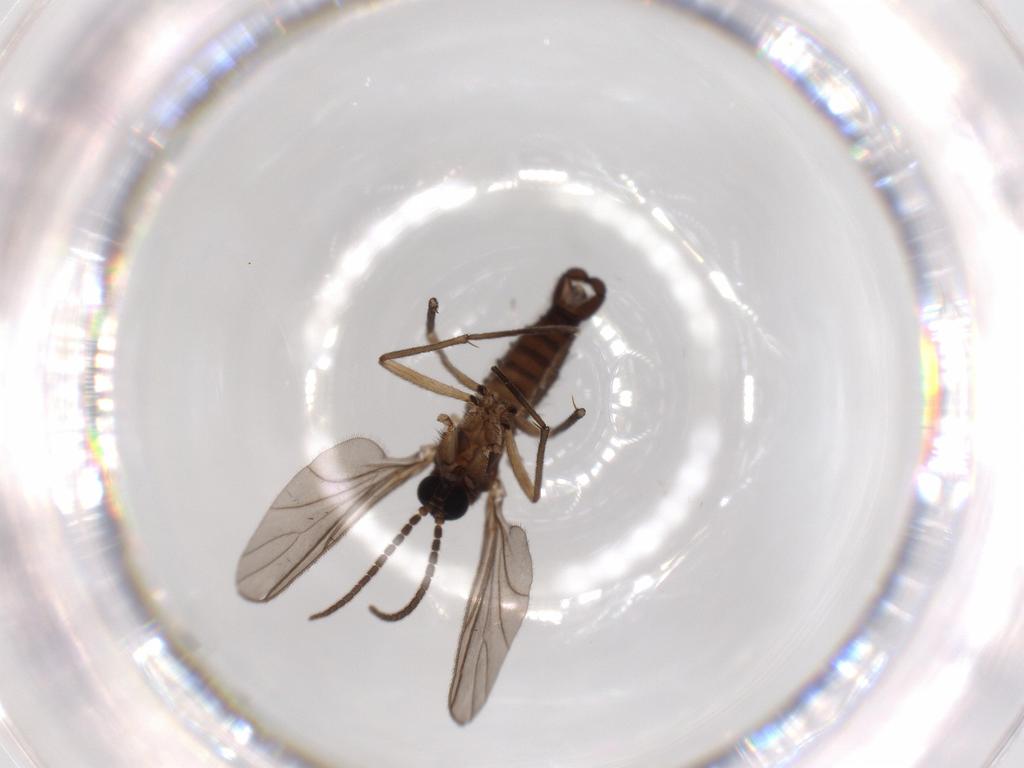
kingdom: Animalia
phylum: Arthropoda
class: Insecta
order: Diptera
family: Sciaridae
